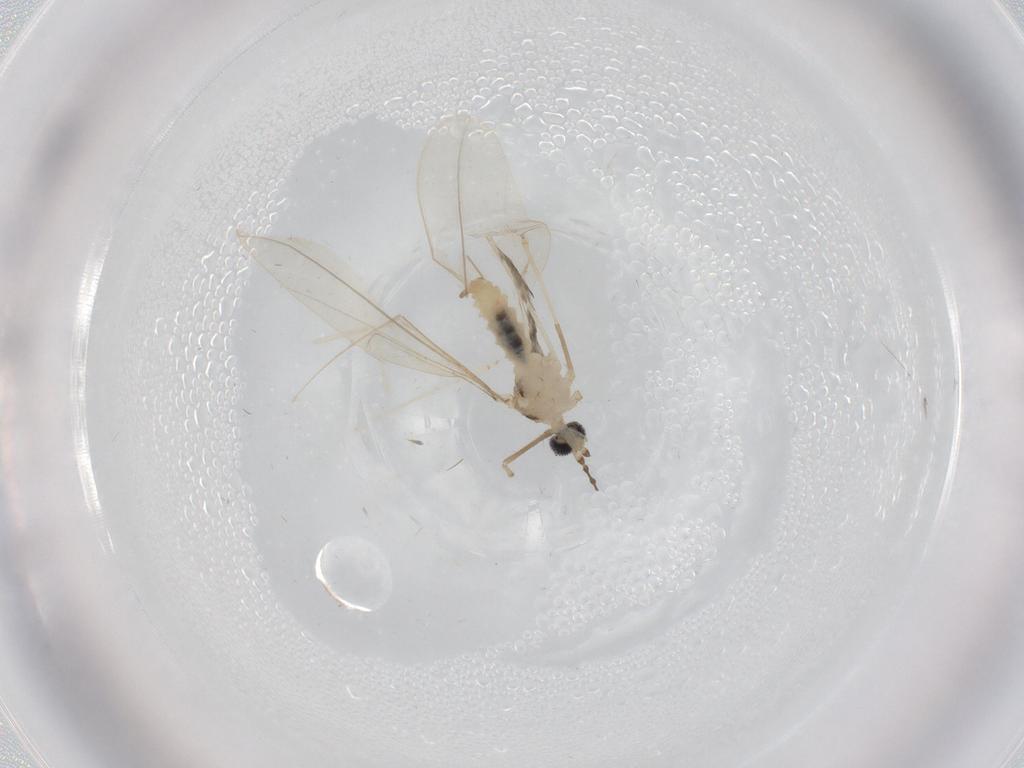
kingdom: Animalia
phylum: Arthropoda
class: Insecta
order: Diptera
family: Cecidomyiidae
